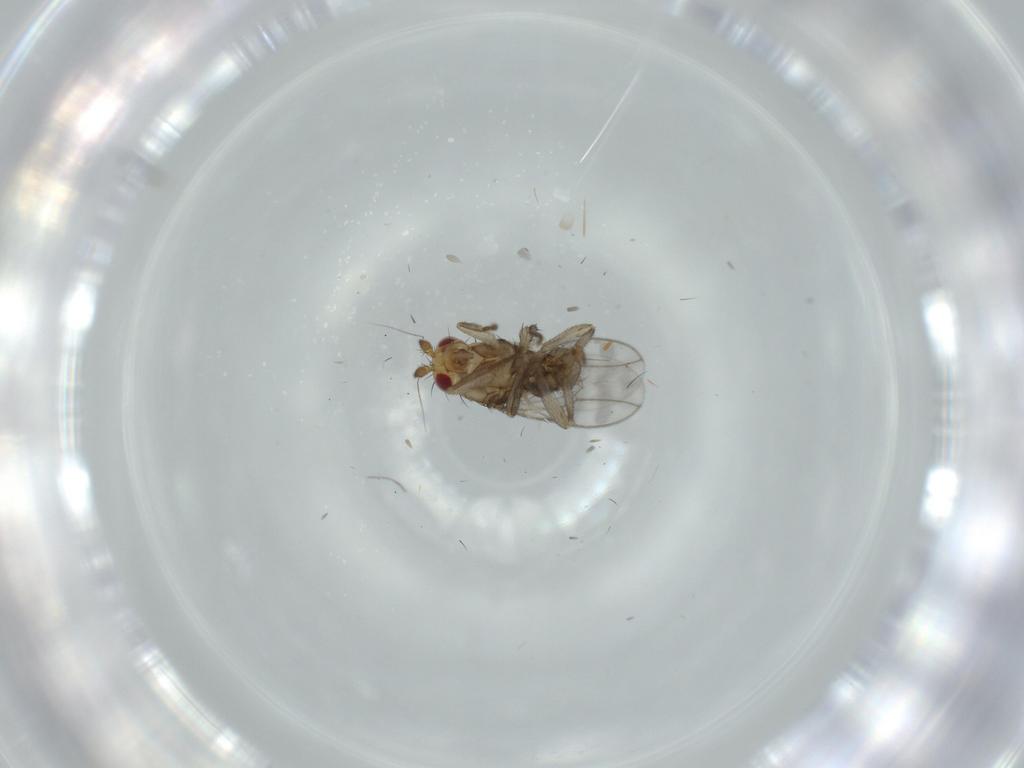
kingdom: Animalia
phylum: Arthropoda
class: Insecta
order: Diptera
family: Sciaridae
